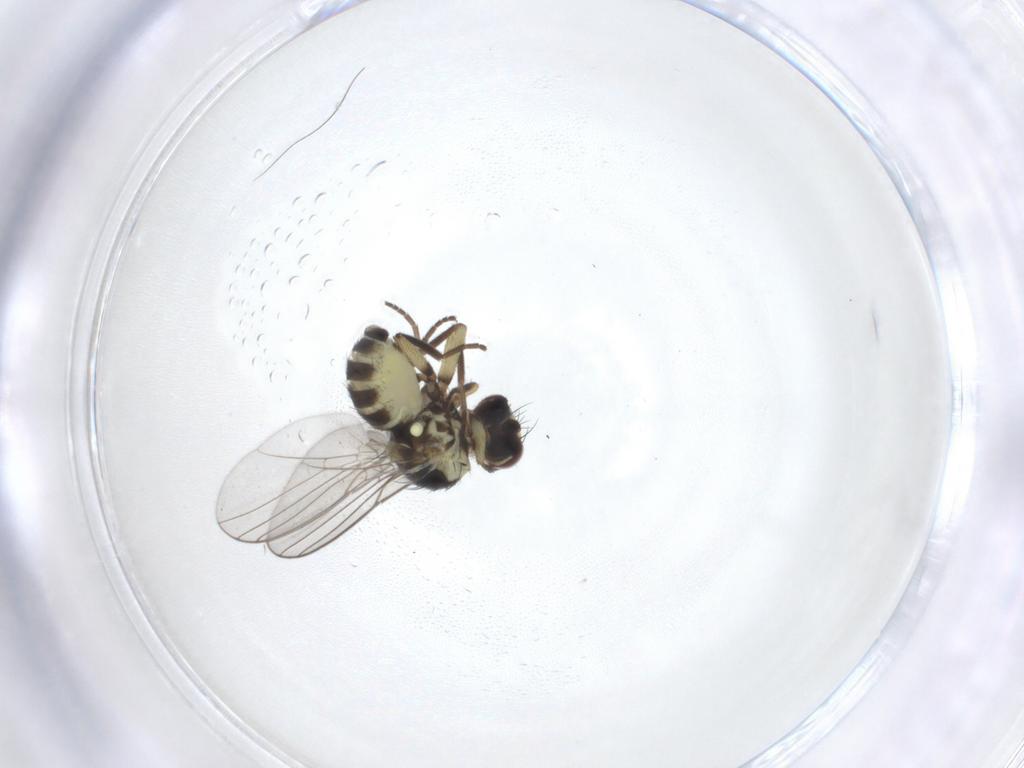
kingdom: Animalia
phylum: Arthropoda
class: Insecta
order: Diptera
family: Agromyzidae
